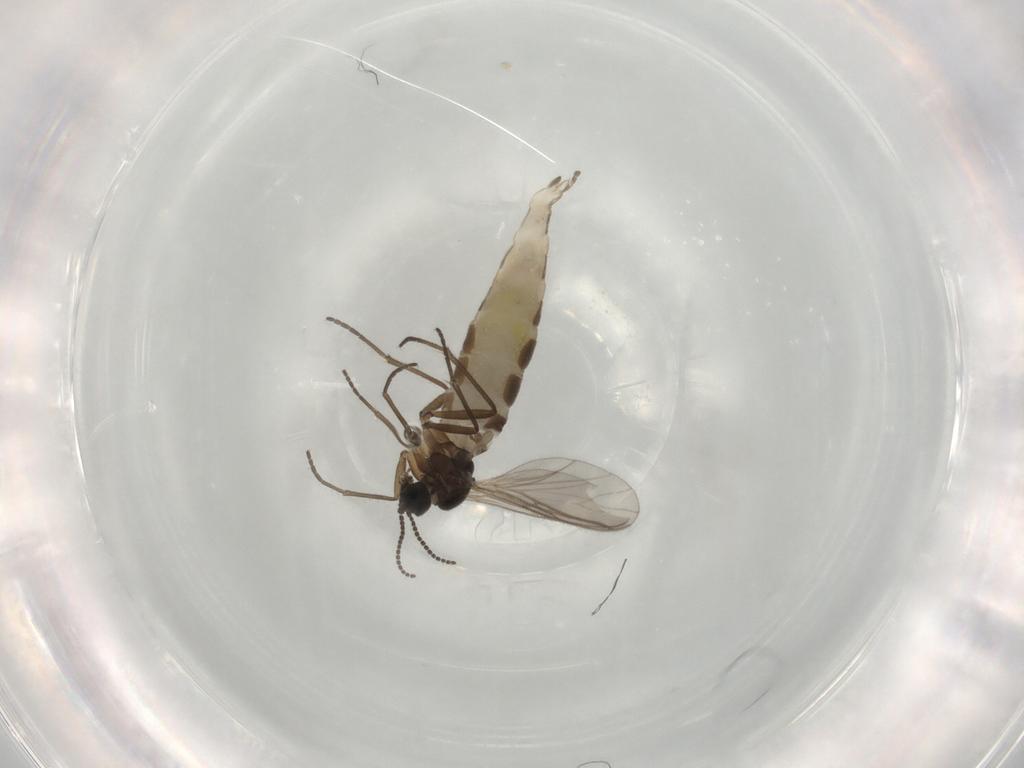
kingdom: Animalia
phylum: Arthropoda
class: Insecta
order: Diptera
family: Sciaridae
